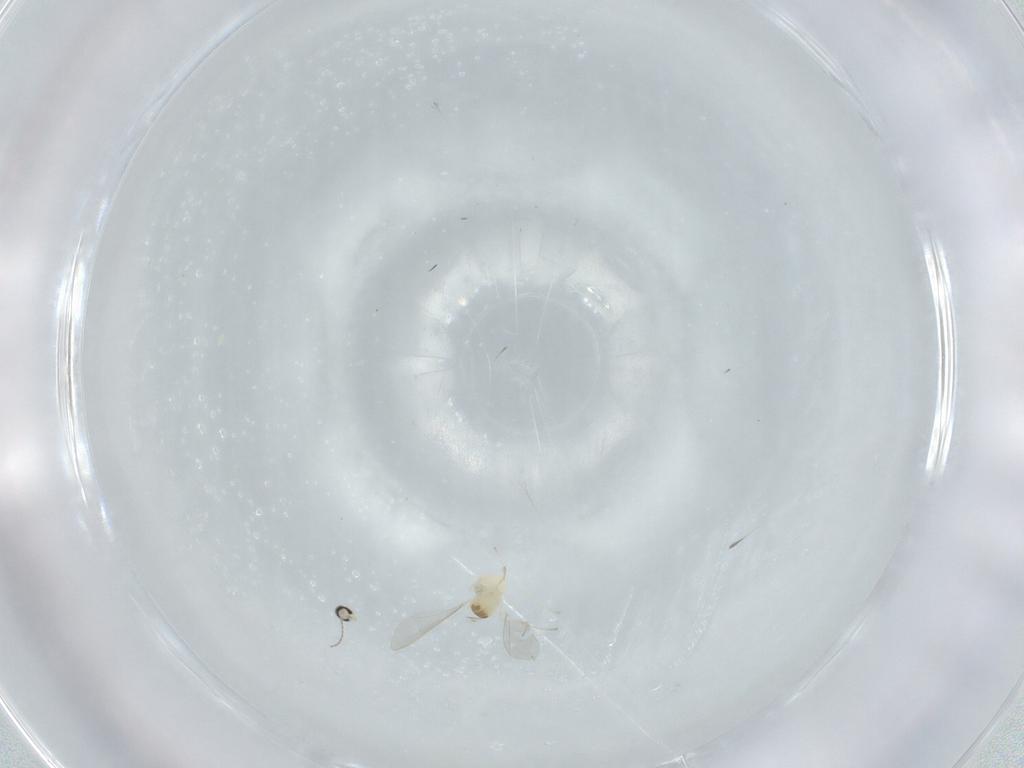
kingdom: Animalia
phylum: Arthropoda
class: Insecta
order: Diptera
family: Cecidomyiidae
